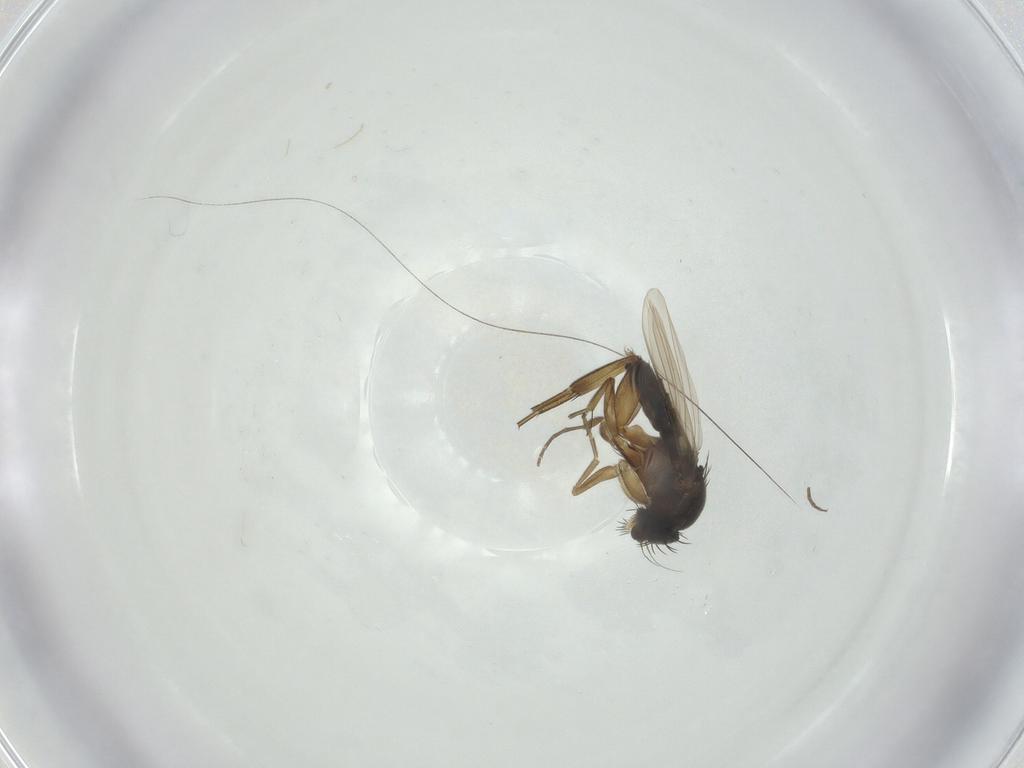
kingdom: Animalia
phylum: Arthropoda
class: Insecta
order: Diptera
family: Phoridae
